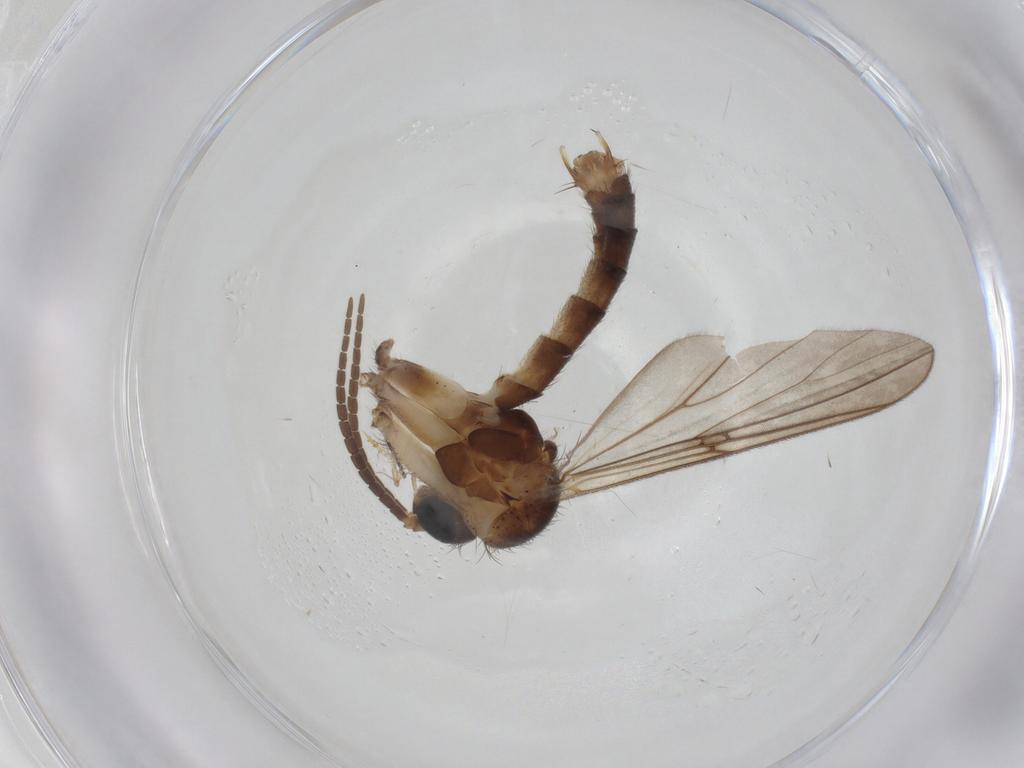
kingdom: Animalia
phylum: Arthropoda
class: Insecta
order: Diptera
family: Mycetophilidae
